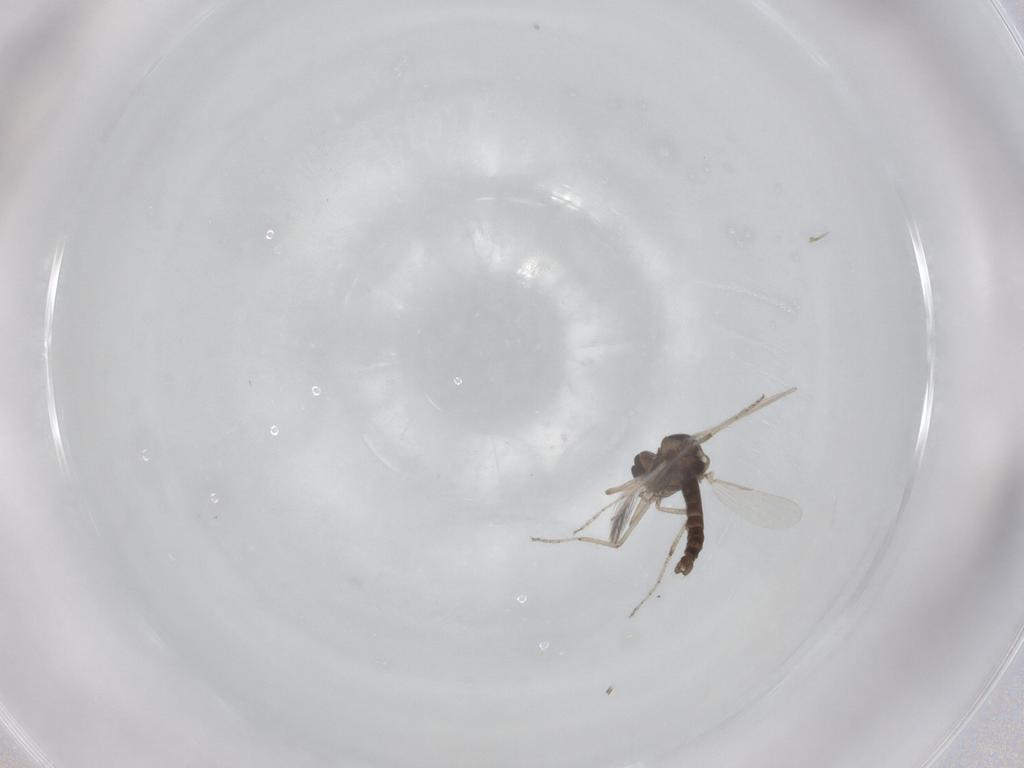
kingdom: Animalia
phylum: Arthropoda
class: Insecta
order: Diptera
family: Ceratopogonidae
